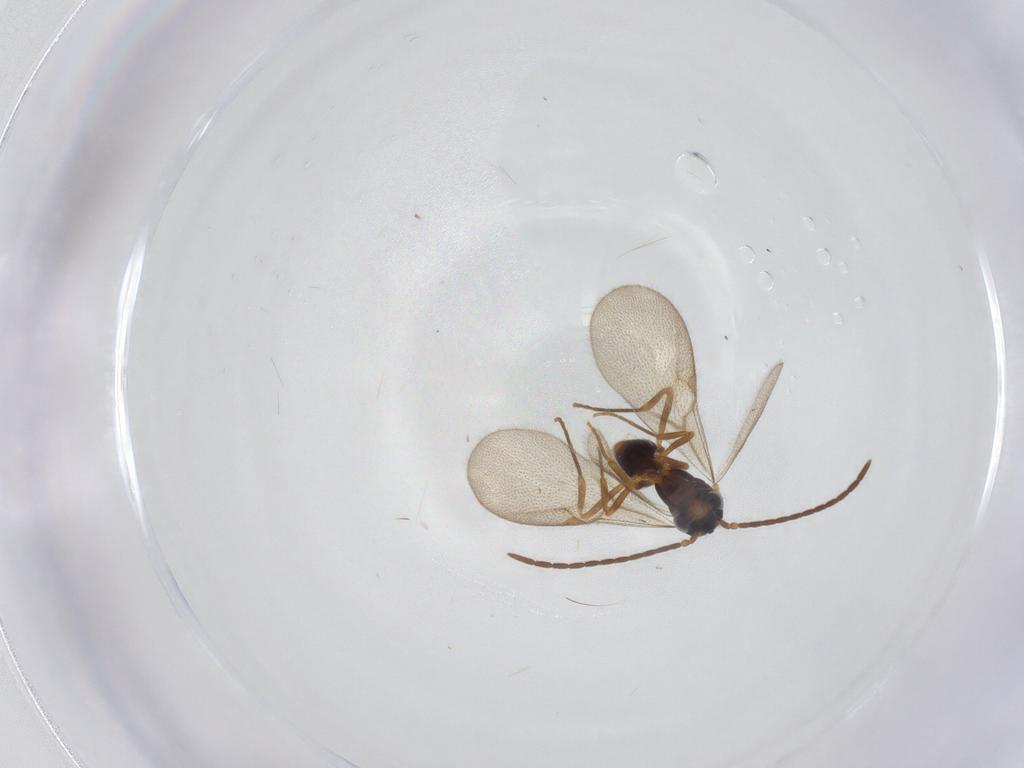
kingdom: Animalia
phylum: Arthropoda
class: Insecta
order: Hymenoptera
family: Formicidae
